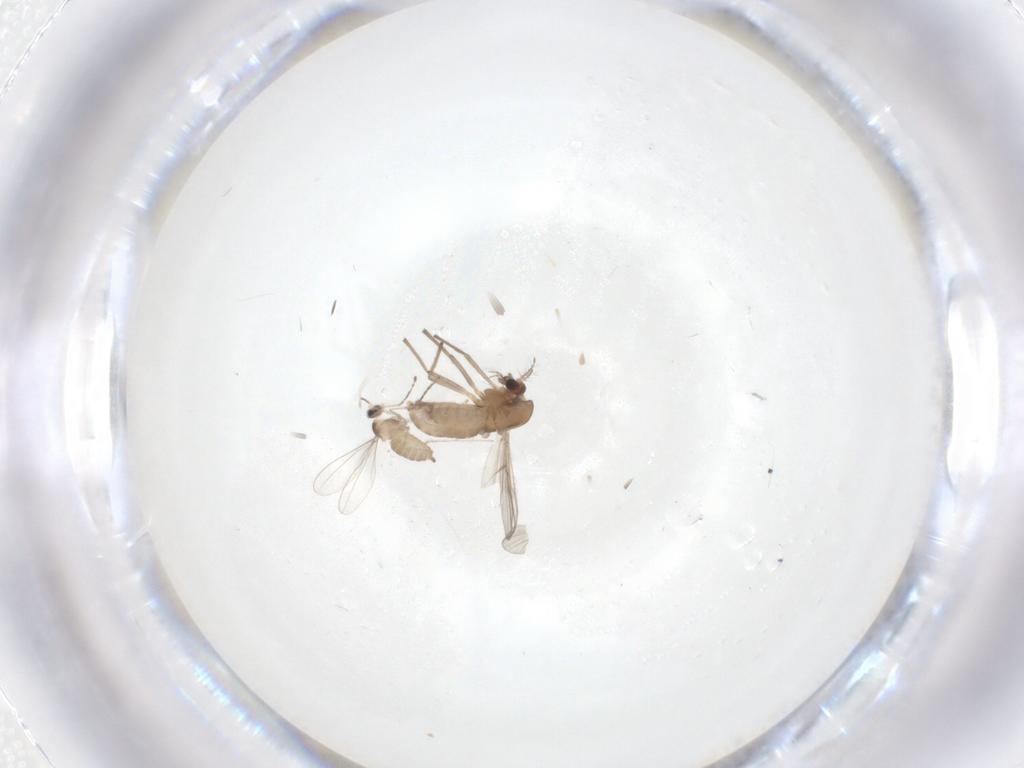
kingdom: Animalia
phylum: Arthropoda
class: Insecta
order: Diptera
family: Chironomidae
